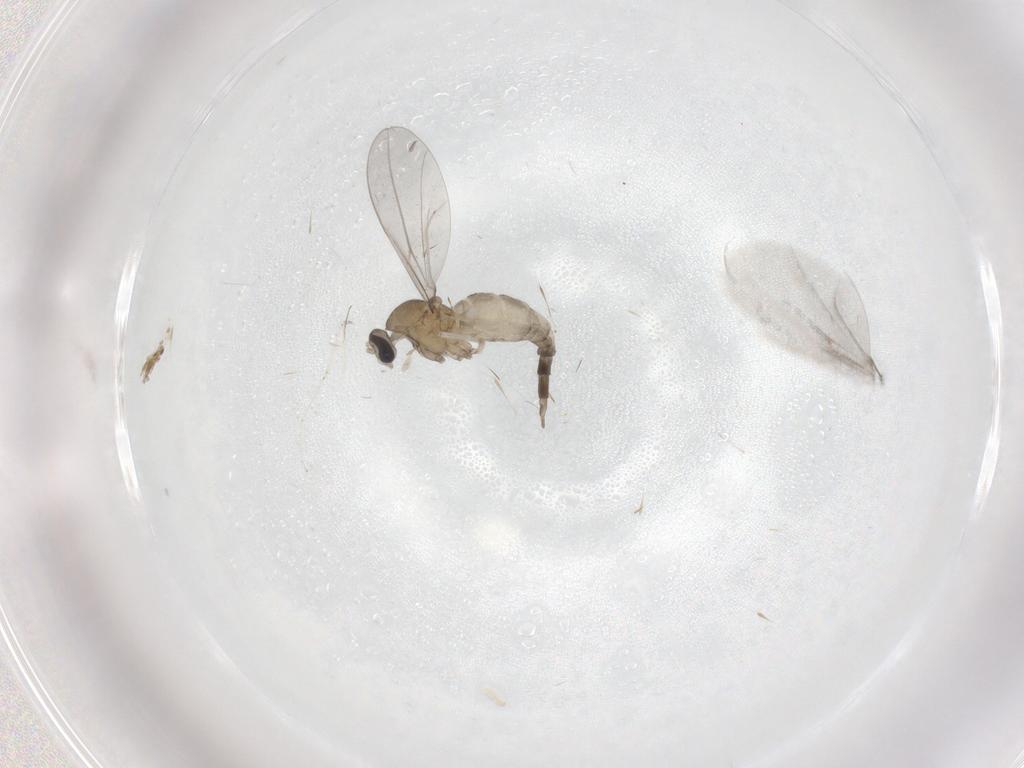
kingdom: Animalia
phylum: Arthropoda
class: Insecta
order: Diptera
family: Cecidomyiidae
